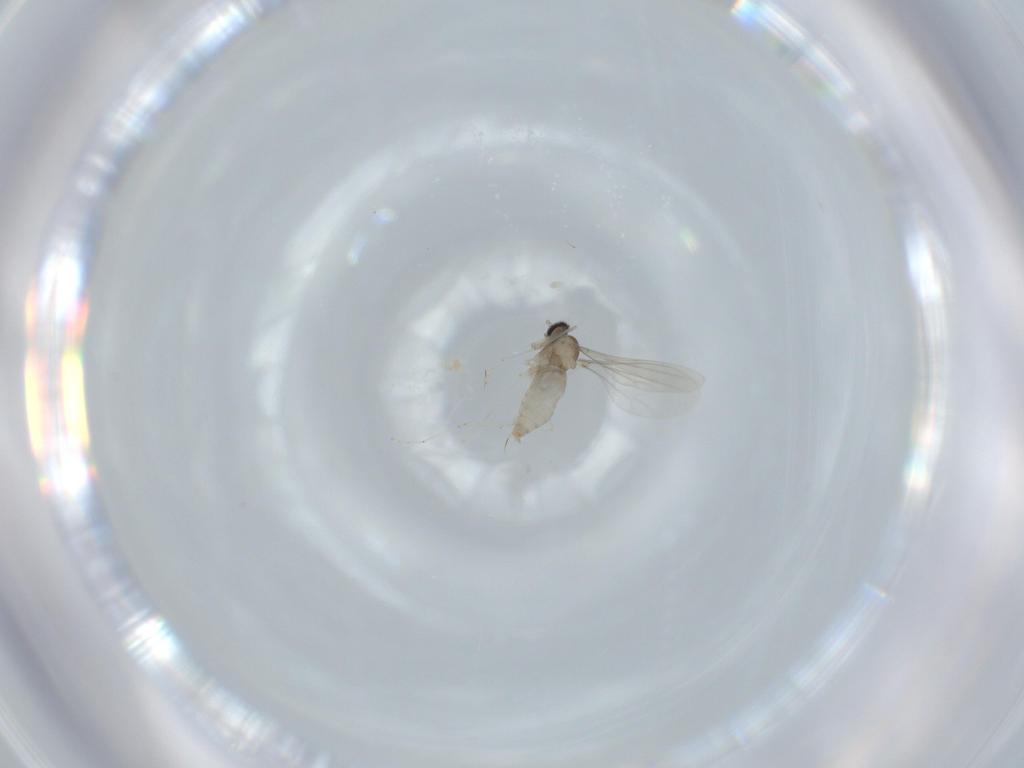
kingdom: Animalia
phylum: Arthropoda
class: Insecta
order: Diptera
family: Cecidomyiidae
